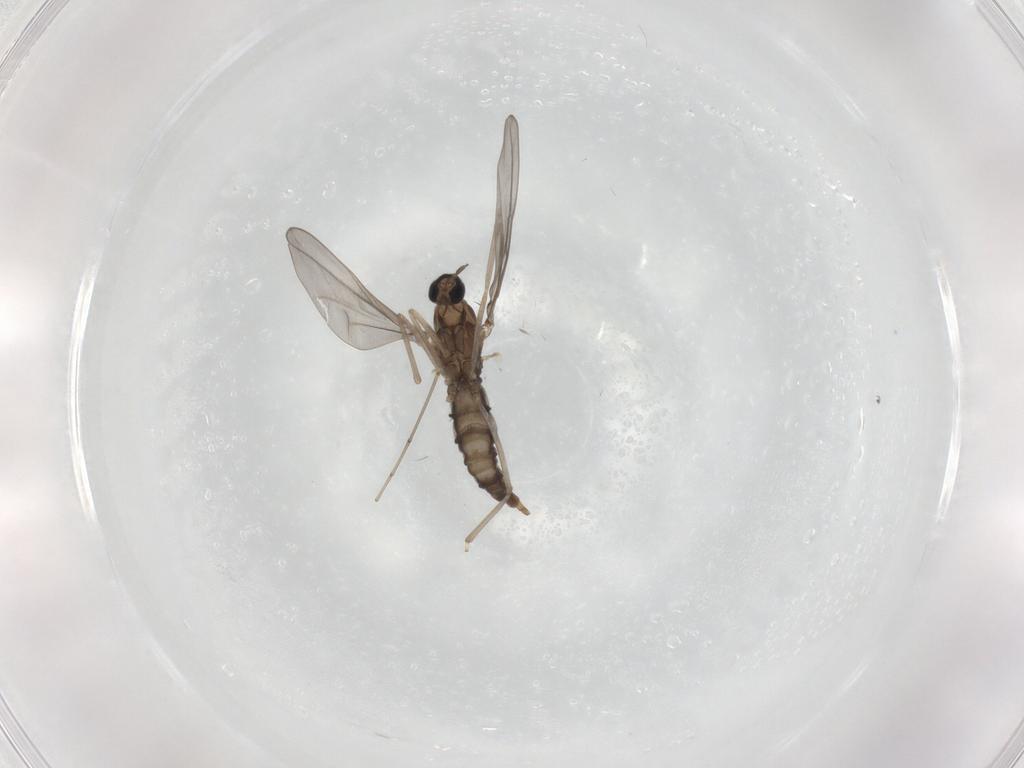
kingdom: Animalia
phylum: Arthropoda
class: Insecta
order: Diptera
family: Cecidomyiidae
